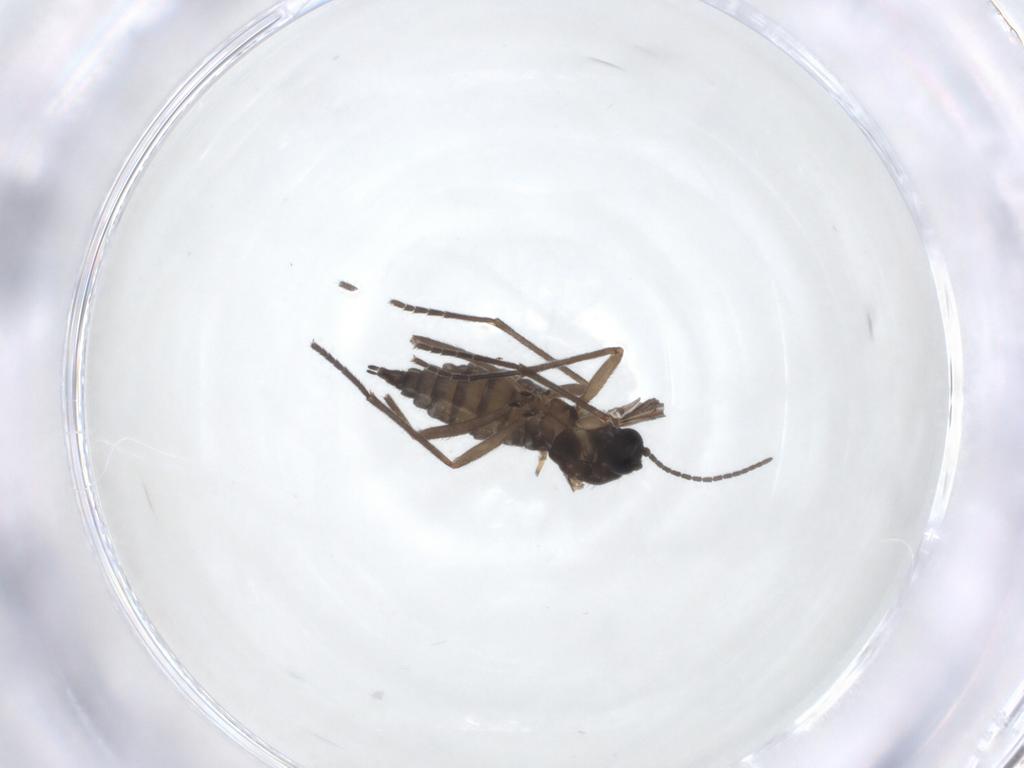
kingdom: Animalia
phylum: Arthropoda
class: Insecta
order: Diptera
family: Sciaridae
